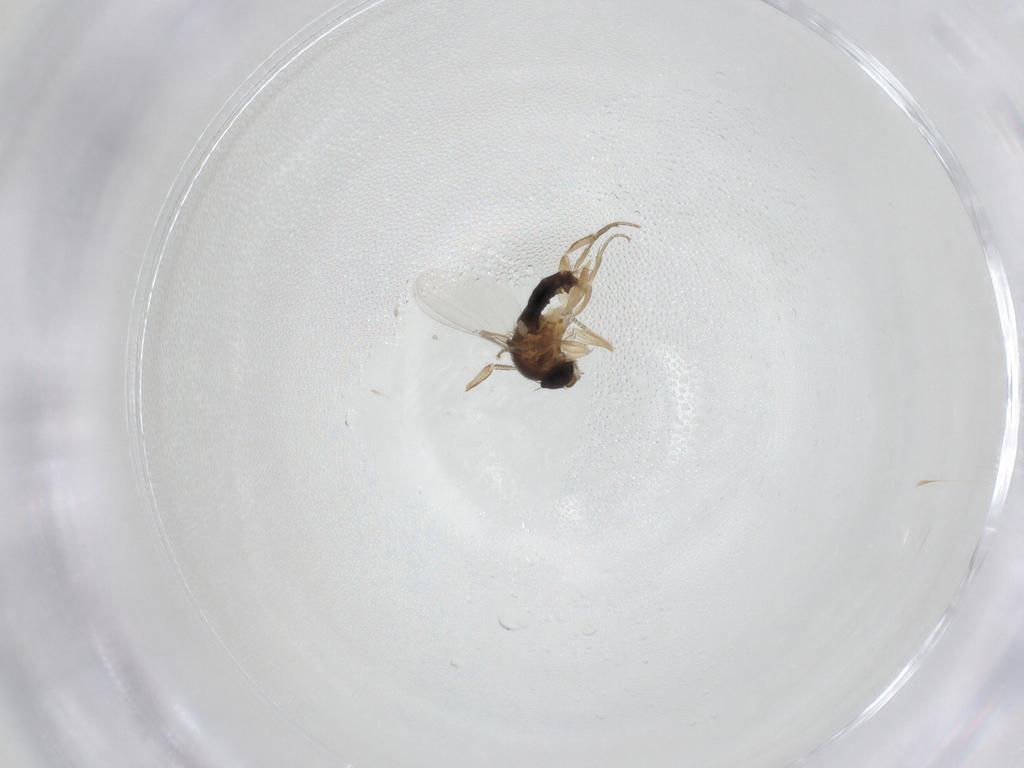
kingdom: Animalia
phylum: Arthropoda
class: Insecta
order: Diptera
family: Phoridae
